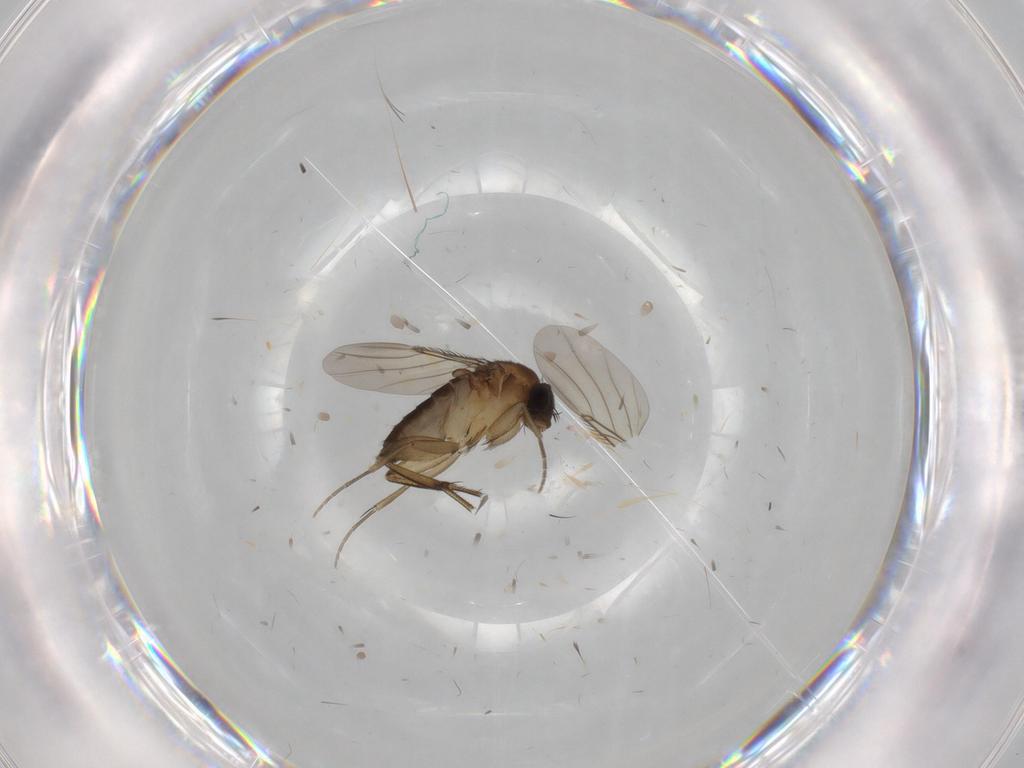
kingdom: Animalia
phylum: Arthropoda
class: Insecta
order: Diptera
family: Phoridae
